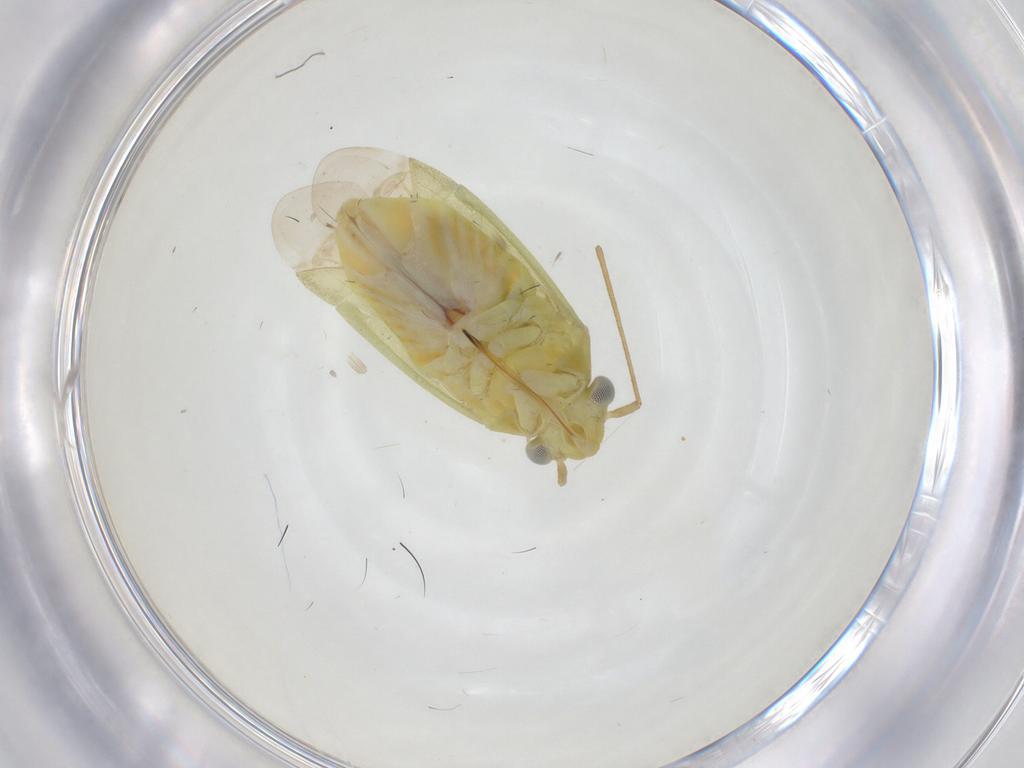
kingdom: Animalia
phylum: Arthropoda
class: Insecta
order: Hemiptera
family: Miridae
